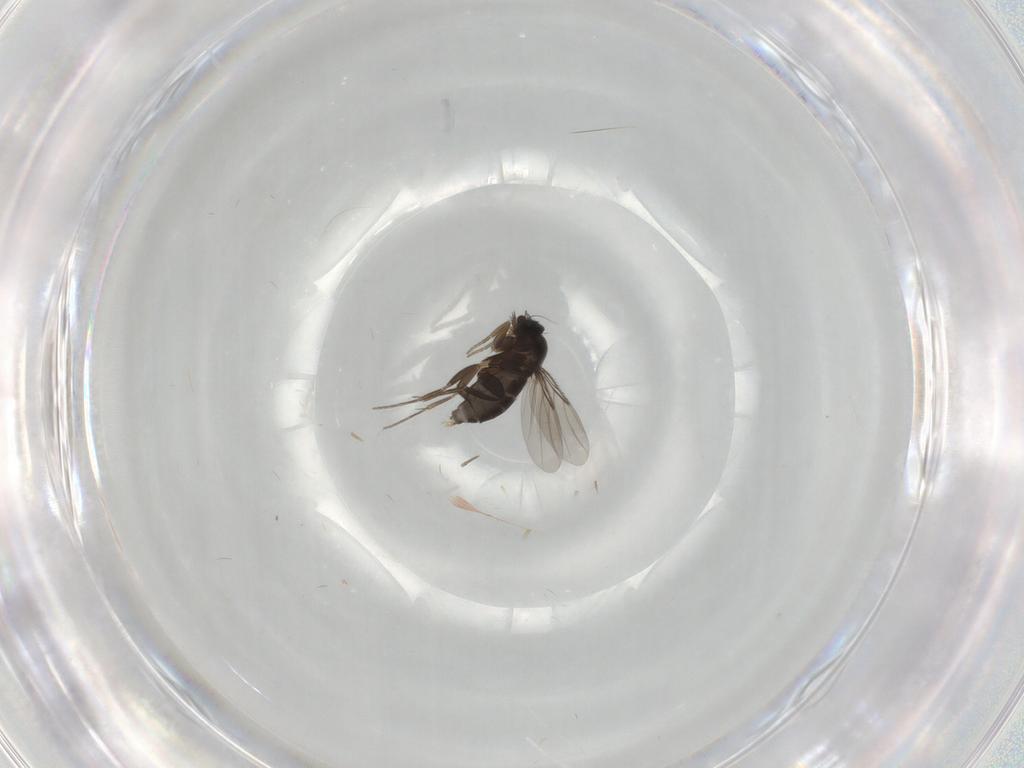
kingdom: Animalia
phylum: Arthropoda
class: Insecta
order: Diptera
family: Phoridae
